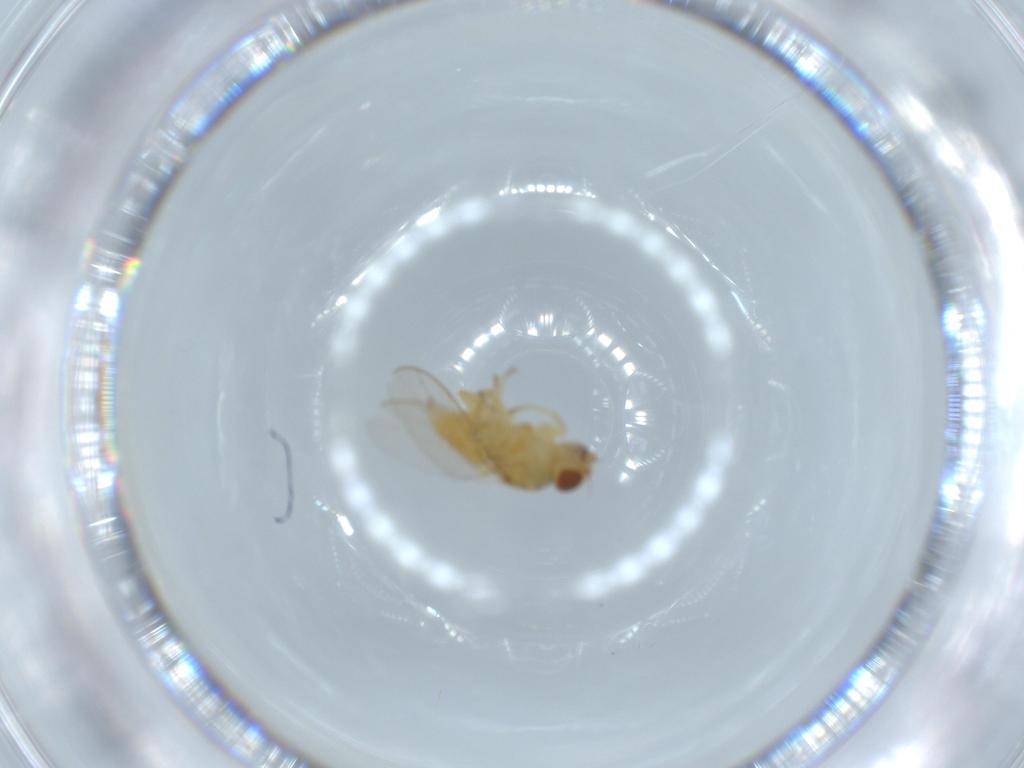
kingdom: Animalia
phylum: Arthropoda
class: Insecta
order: Diptera
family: Chloropidae
